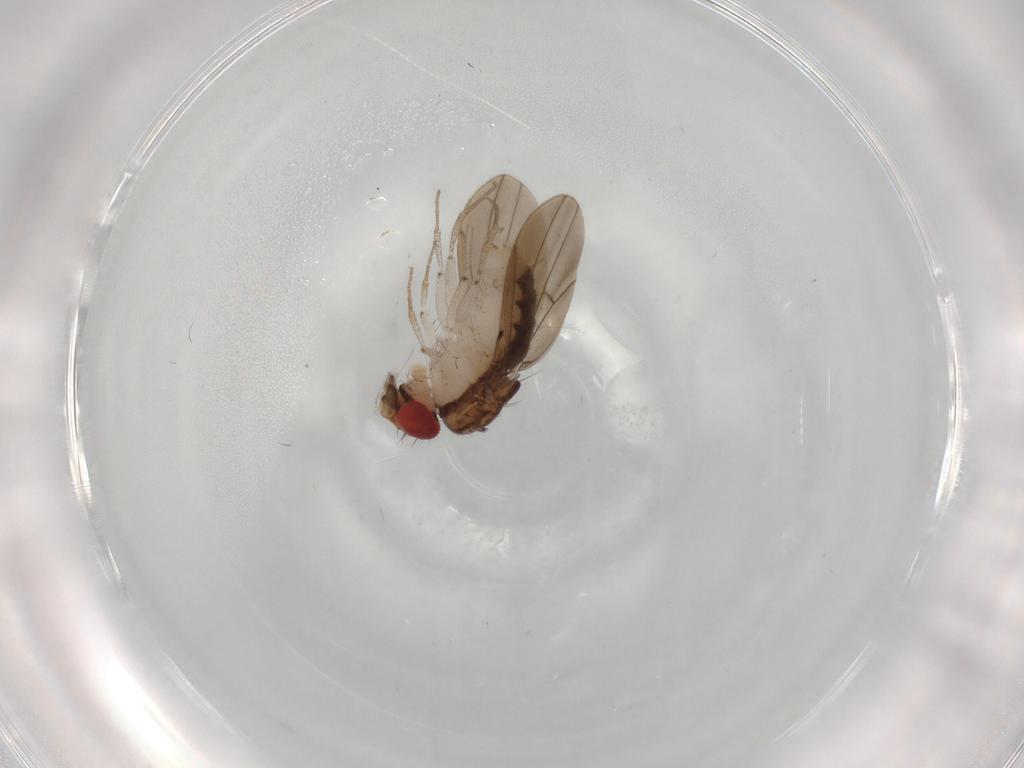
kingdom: Animalia
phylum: Arthropoda
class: Insecta
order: Diptera
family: Drosophilidae
